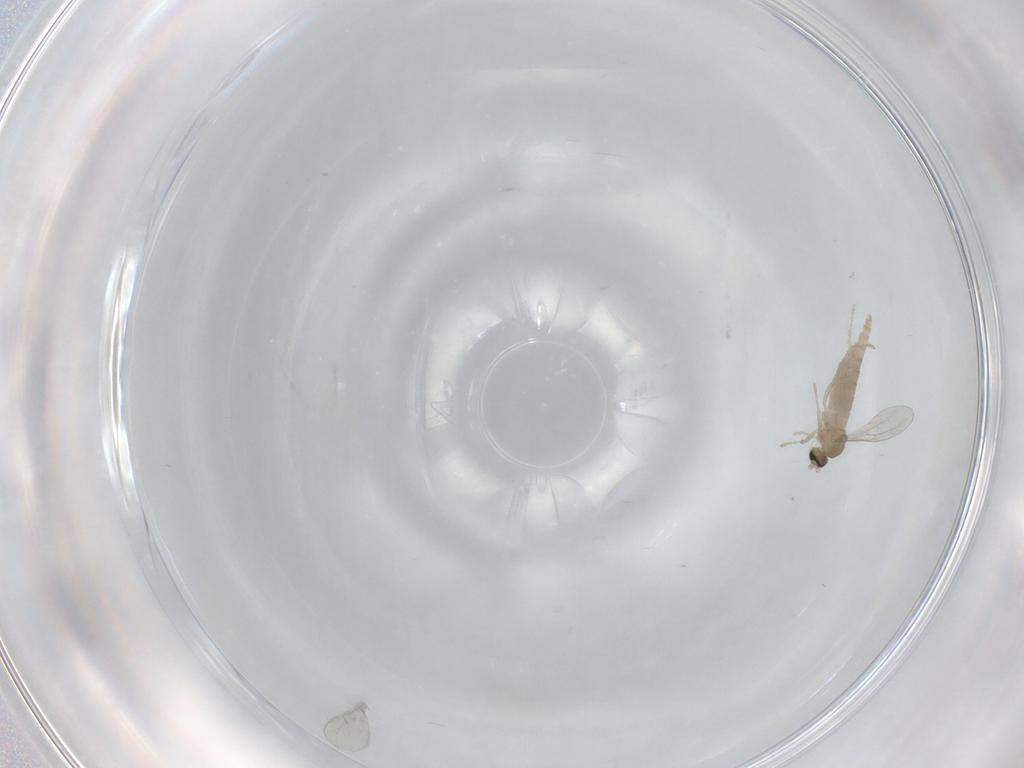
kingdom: Animalia
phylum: Arthropoda
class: Insecta
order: Diptera
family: Cecidomyiidae
